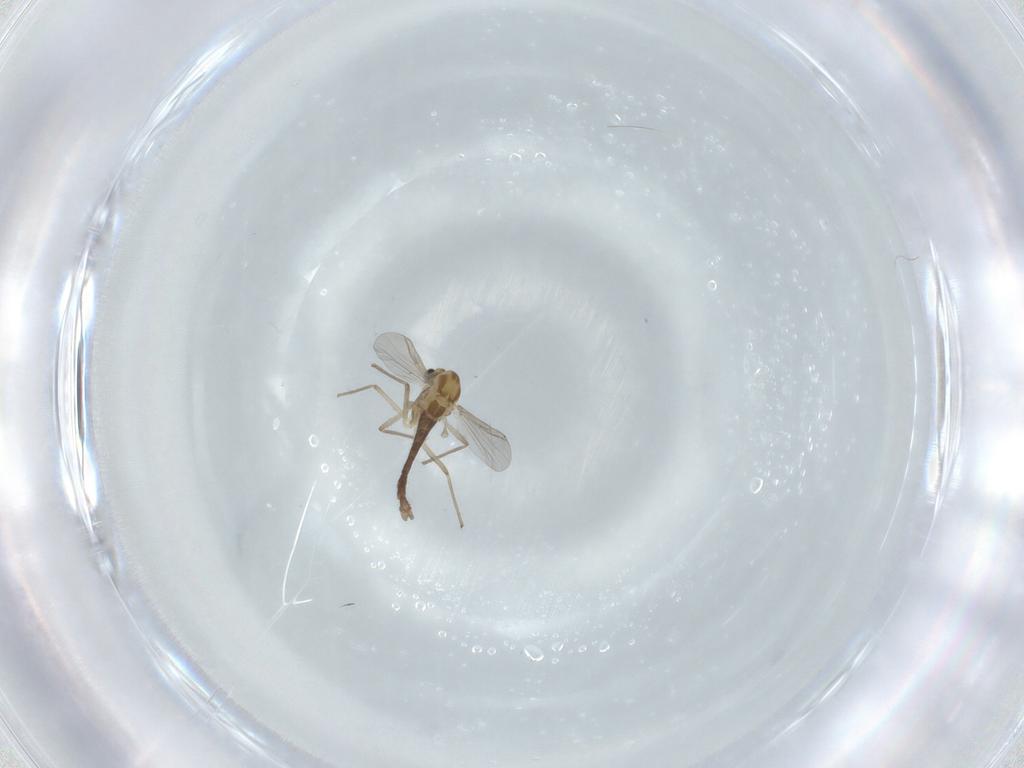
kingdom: Animalia
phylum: Arthropoda
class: Insecta
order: Diptera
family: Chironomidae
